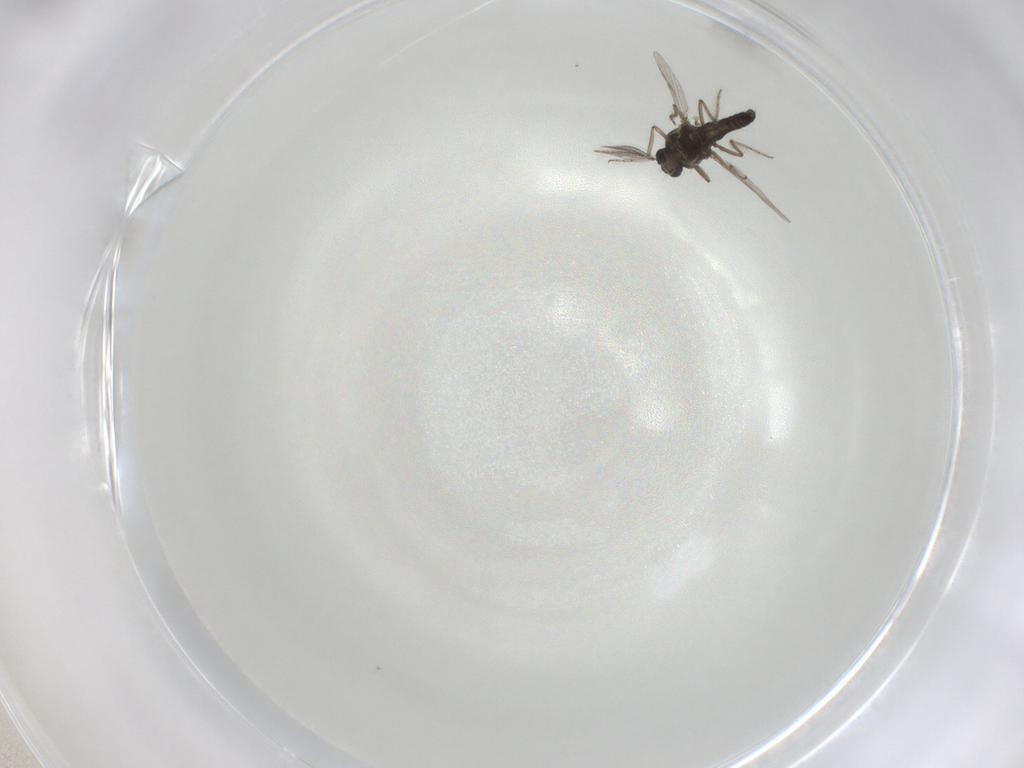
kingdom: Animalia
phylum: Arthropoda
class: Insecta
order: Diptera
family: Ceratopogonidae
